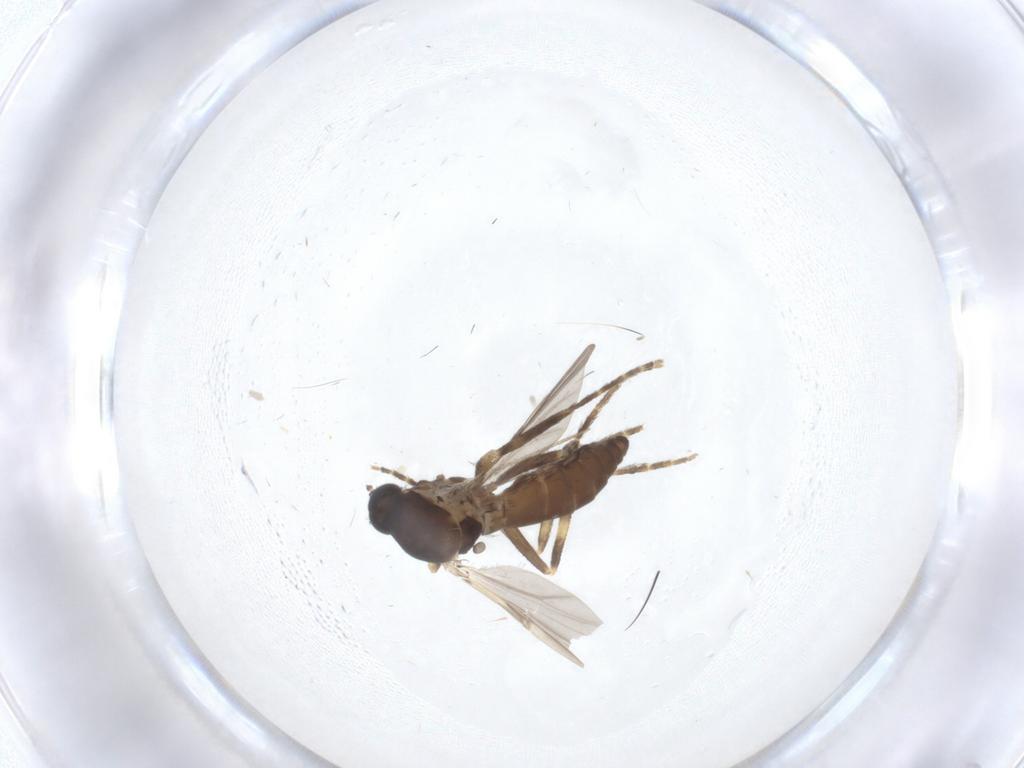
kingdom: Animalia
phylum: Arthropoda
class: Insecta
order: Diptera
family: Ceratopogonidae
